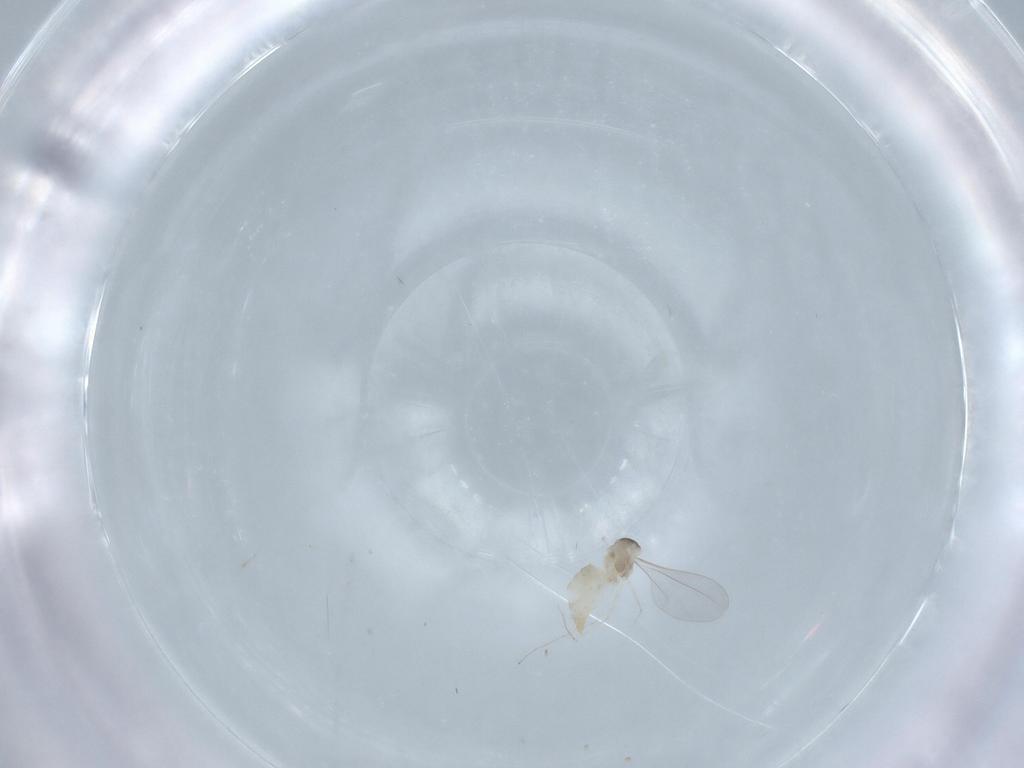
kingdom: Animalia
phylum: Arthropoda
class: Insecta
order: Diptera
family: Cecidomyiidae
